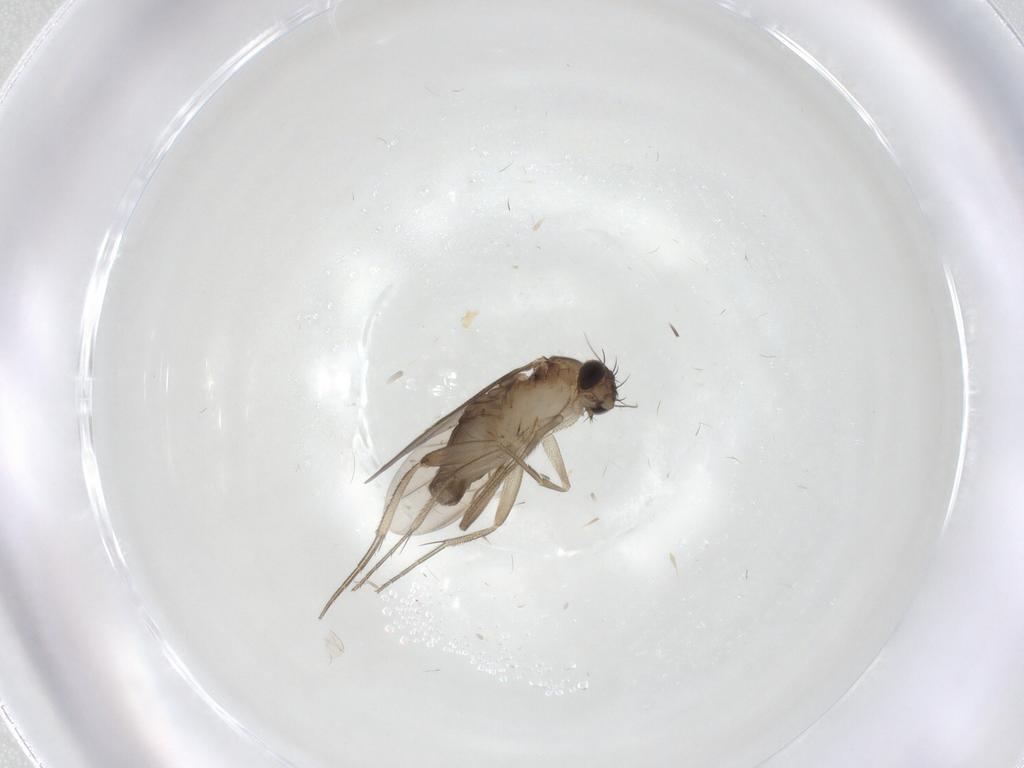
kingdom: Animalia
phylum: Arthropoda
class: Insecta
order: Diptera
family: Phoridae
